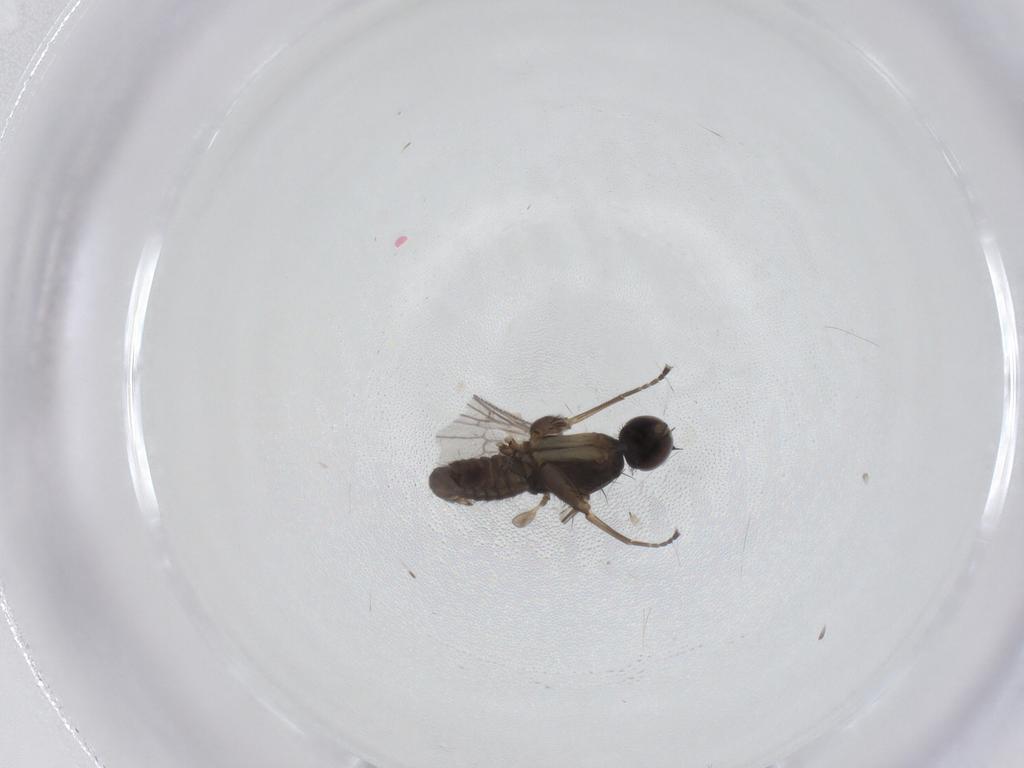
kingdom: Animalia
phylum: Arthropoda
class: Insecta
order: Diptera
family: Empididae
